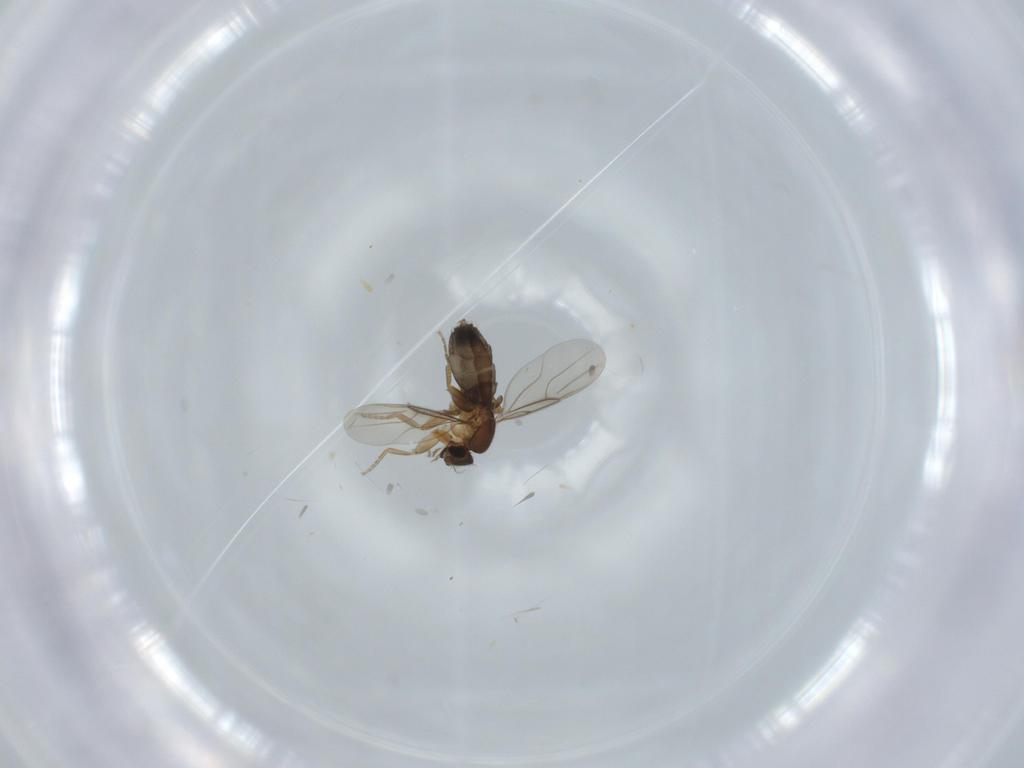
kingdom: Animalia
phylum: Arthropoda
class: Insecta
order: Diptera
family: Phoridae
